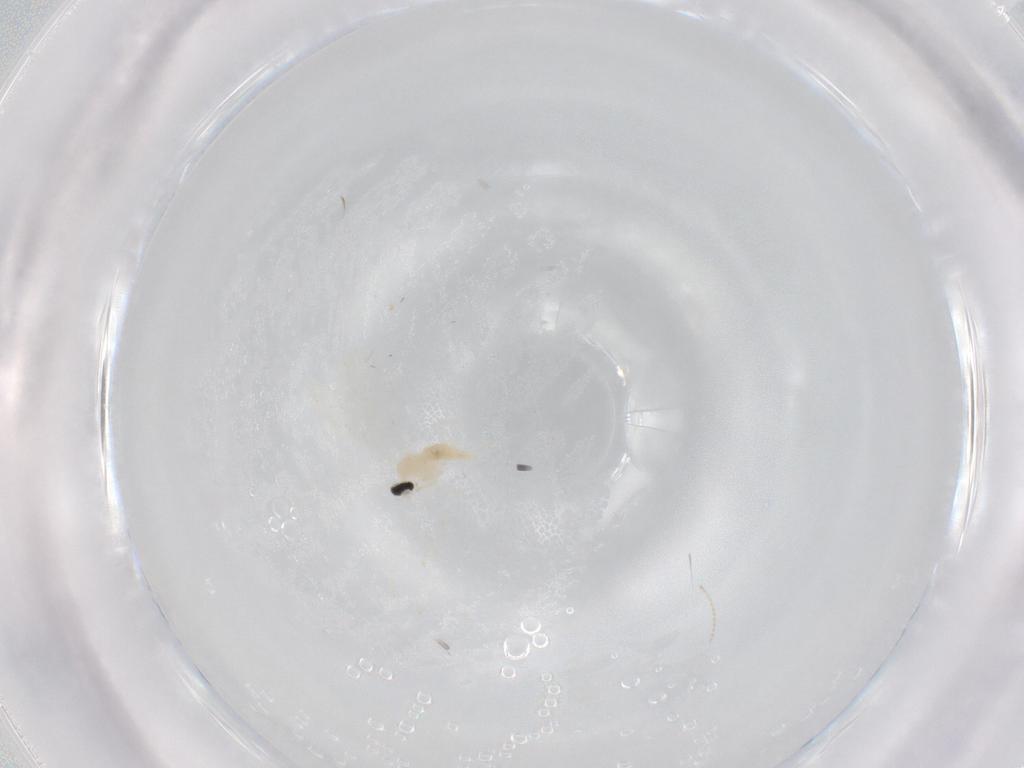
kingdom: Animalia
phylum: Arthropoda
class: Insecta
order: Diptera
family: Cecidomyiidae
